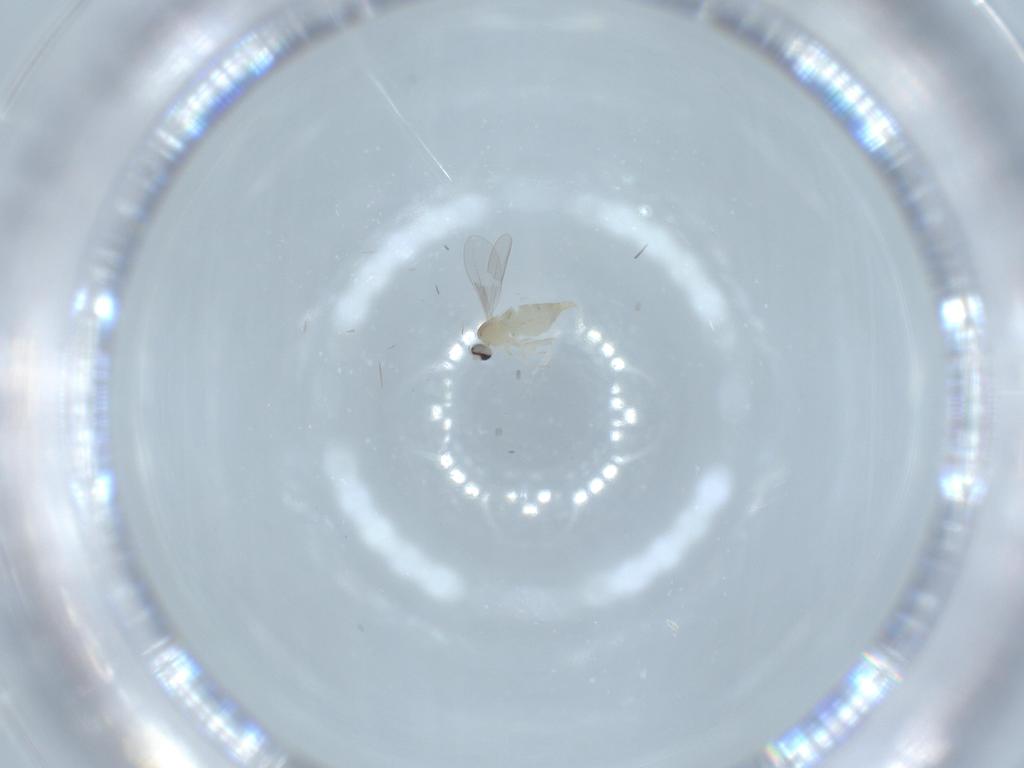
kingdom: Animalia
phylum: Arthropoda
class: Insecta
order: Diptera
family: Cecidomyiidae
